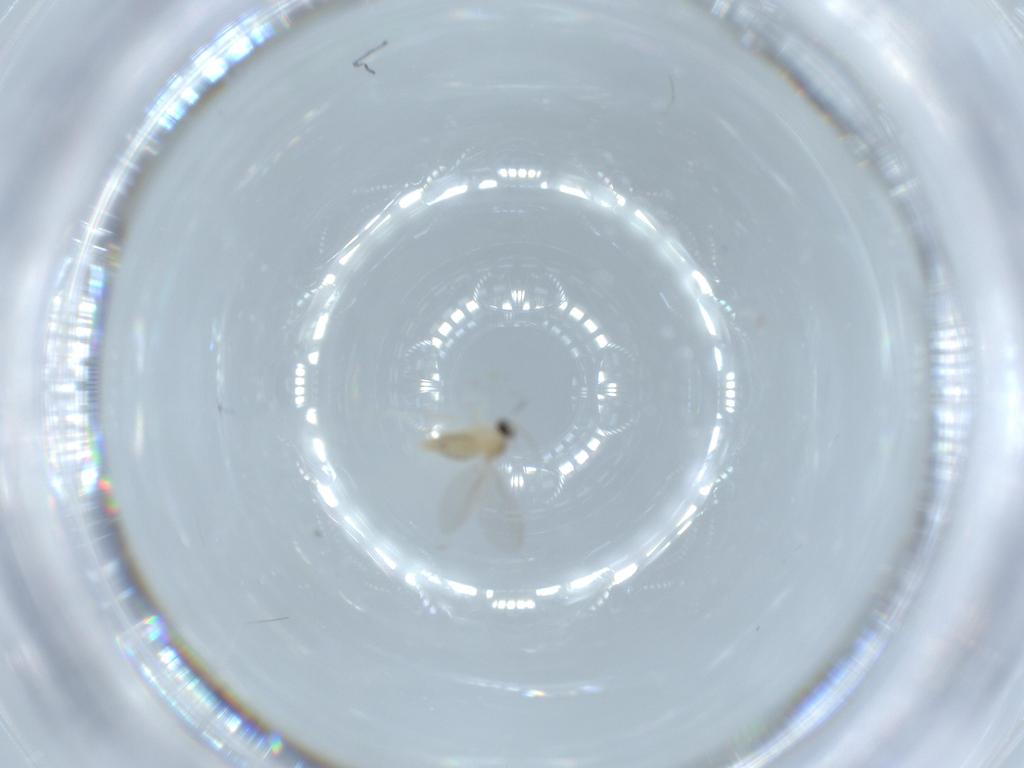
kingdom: Animalia
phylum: Arthropoda
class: Insecta
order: Diptera
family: Cecidomyiidae
